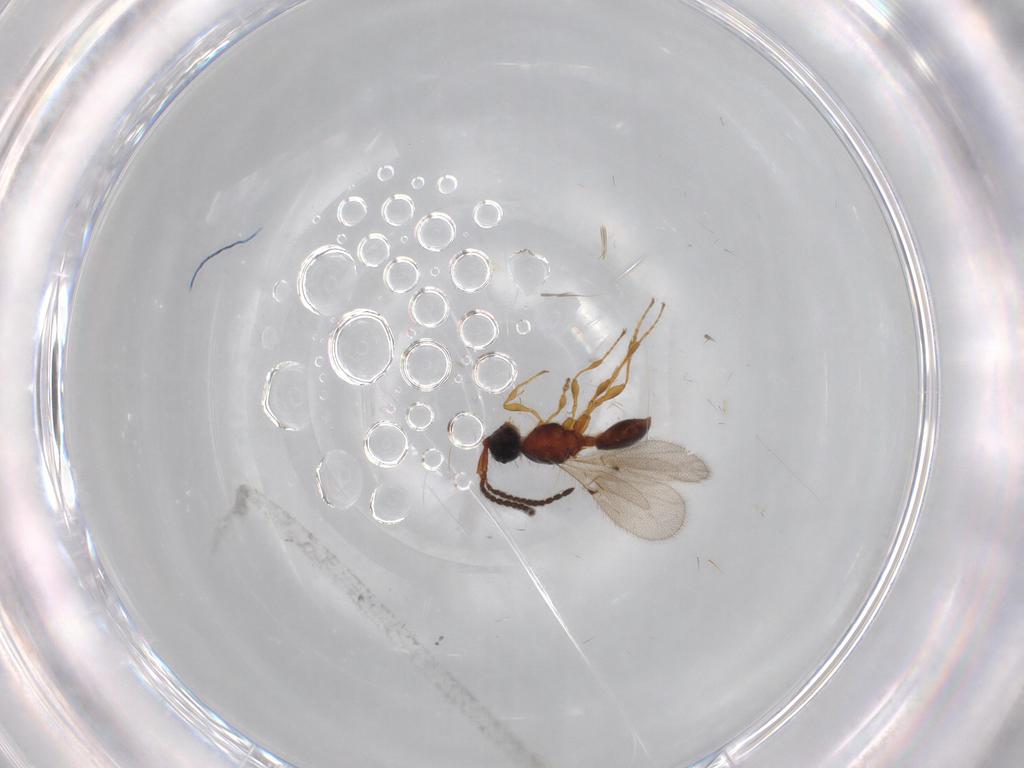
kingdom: Animalia
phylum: Arthropoda
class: Insecta
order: Hymenoptera
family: Diapriidae
